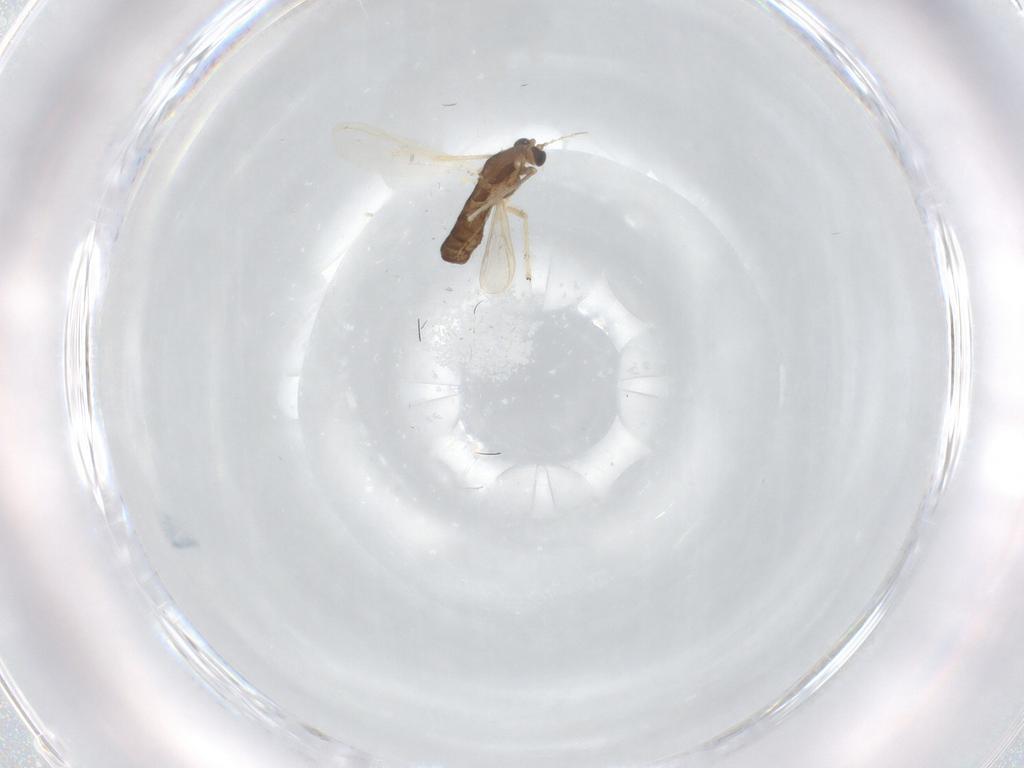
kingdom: Animalia
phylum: Arthropoda
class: Insecta
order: Diptera
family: Chironomidae
